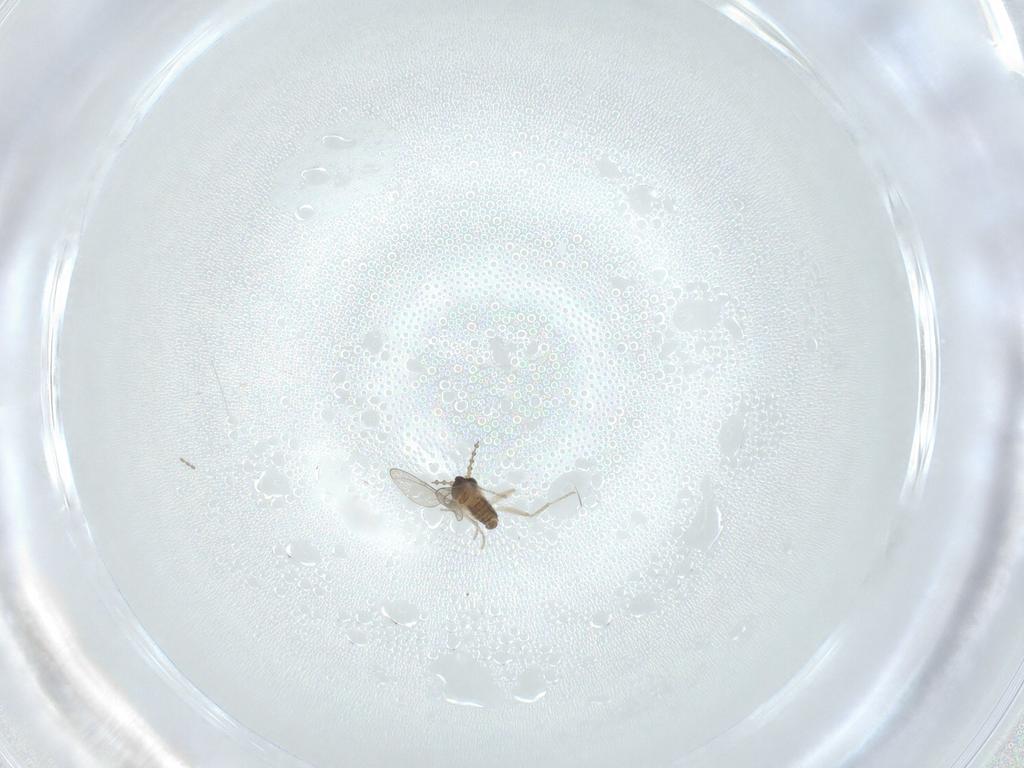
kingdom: Animalia
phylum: Arthropoda
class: Insecta
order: Diptera
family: Cecidomyiidae
